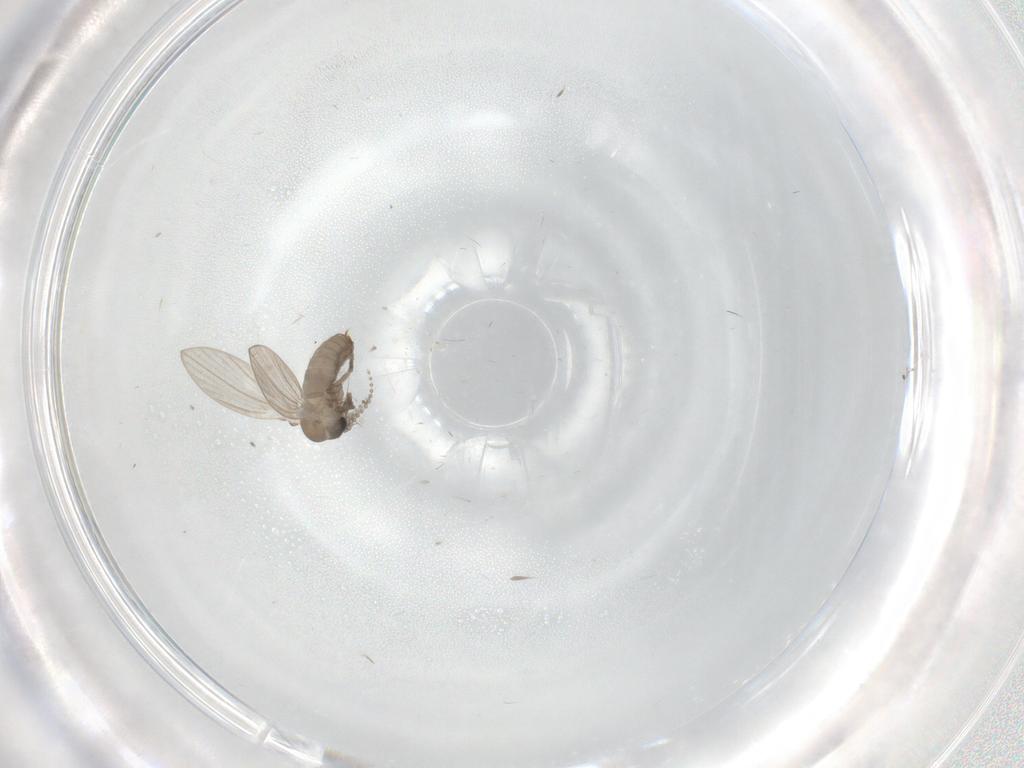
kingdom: Animalia
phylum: Arthropoda
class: Insecta
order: Diptera
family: Psychodidae
